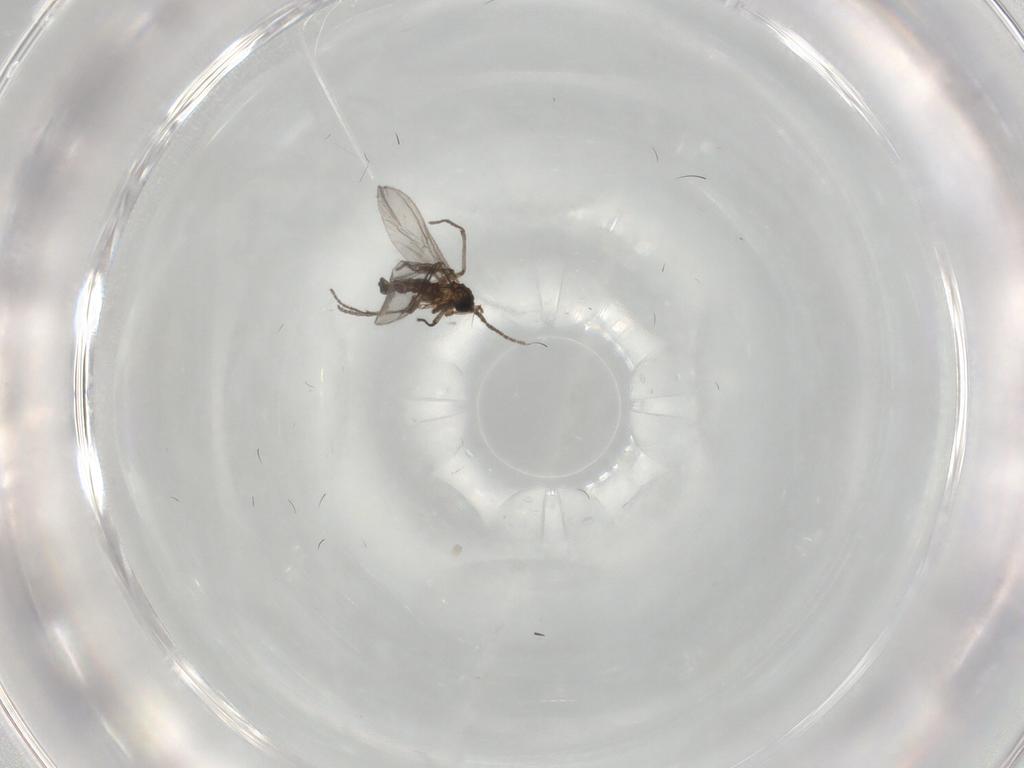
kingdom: Animalia
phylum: Arthropoda
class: Insecta
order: Diptera
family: Sciaridae
